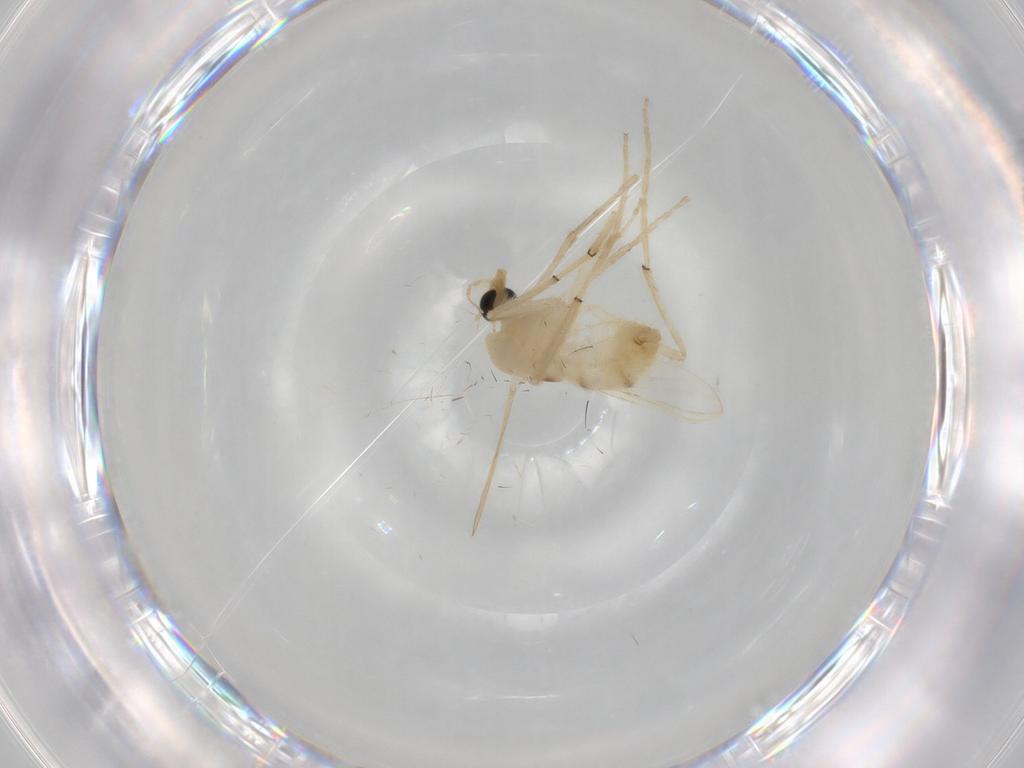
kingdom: Animalia
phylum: Arthropoda
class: Insecta
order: Diptera
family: Chironomidae
